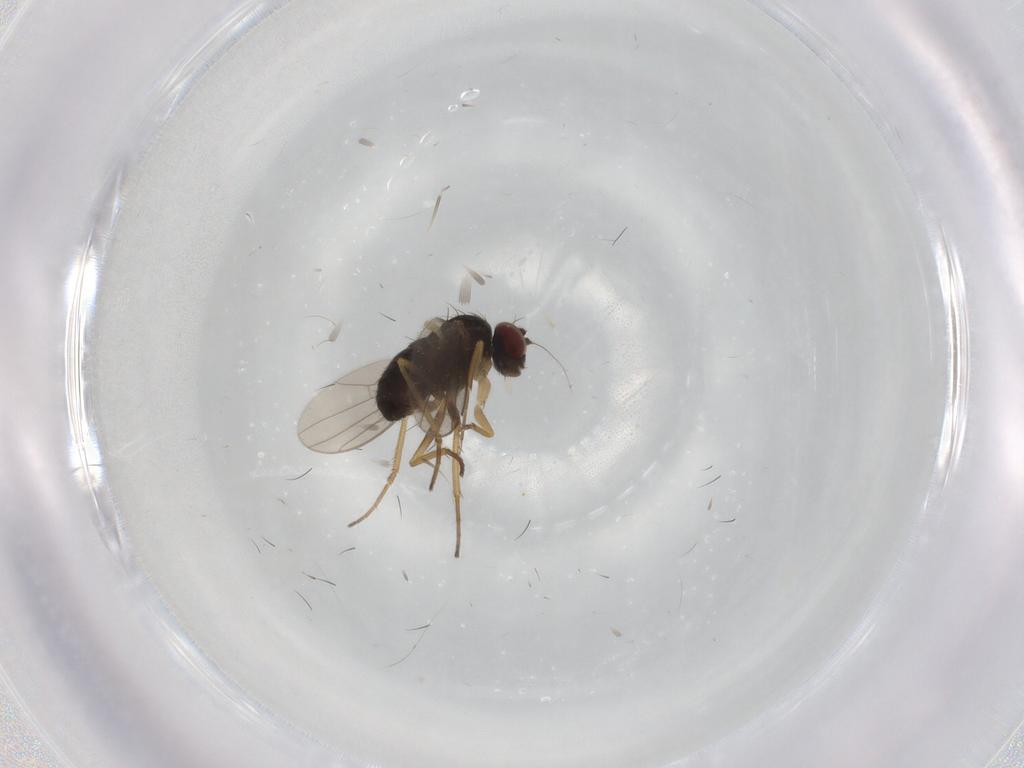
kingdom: Animalia
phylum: Arthropoda
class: Insecta
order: Diptera
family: Dolichopodidae
